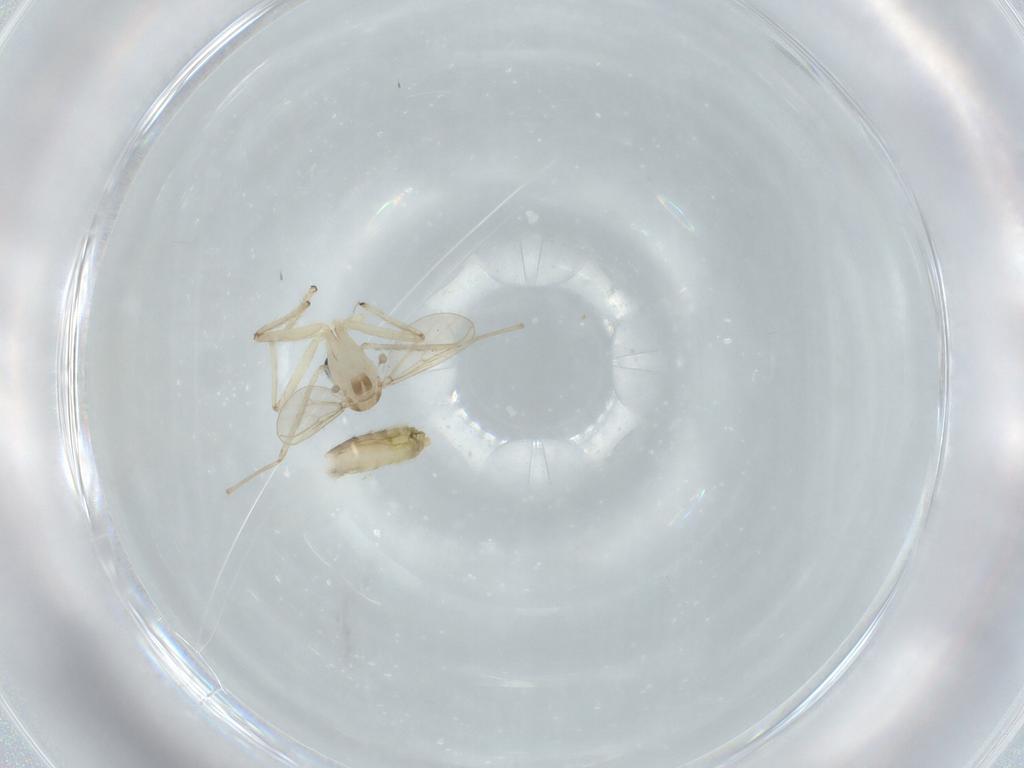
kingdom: Animalia
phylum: Arthropoda
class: Insecta
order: Diptera
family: Chironomidae
